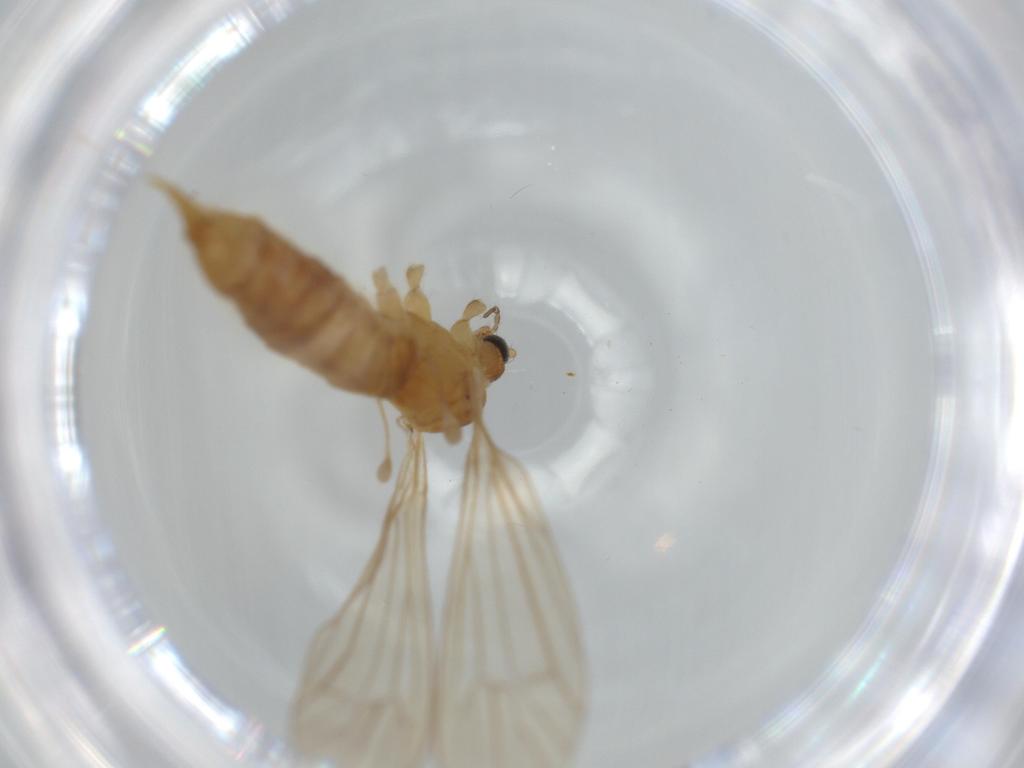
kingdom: Animalia
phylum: Arthropoda
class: Insecta
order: Diptera
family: Limoniidae
